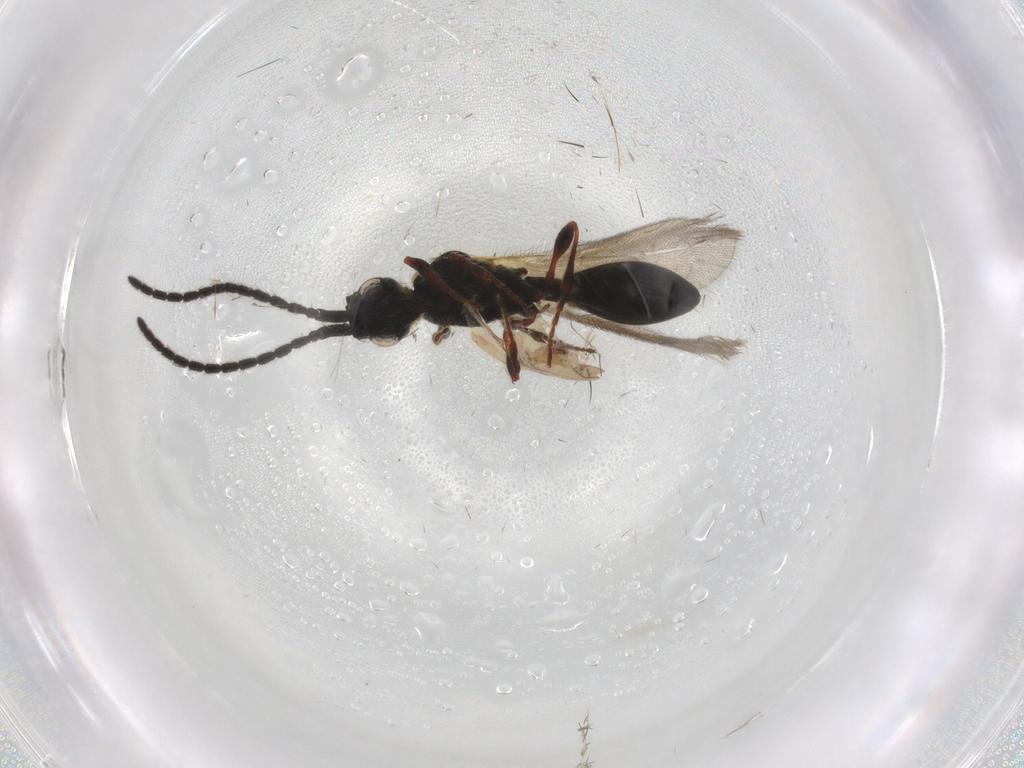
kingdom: Animalia
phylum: Arthropoda
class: Insecta
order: Hymenoptera
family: Diapriidae
